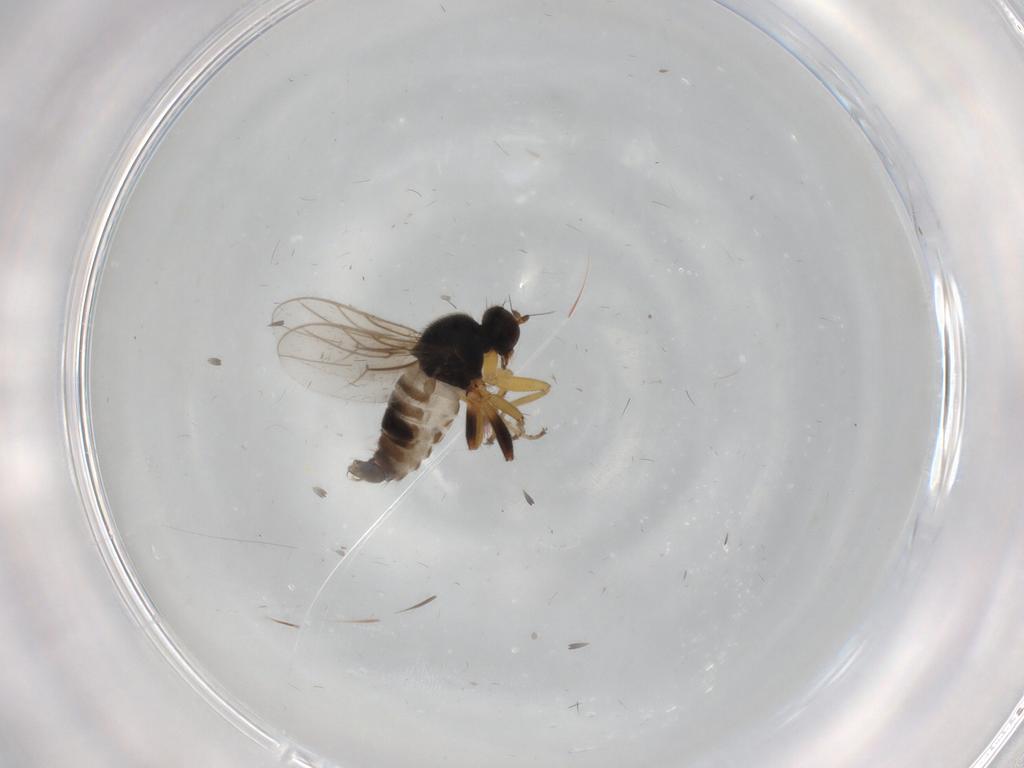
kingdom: Animalia
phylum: Arthropoda
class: Insecta
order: Diptera
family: Hybotidae
